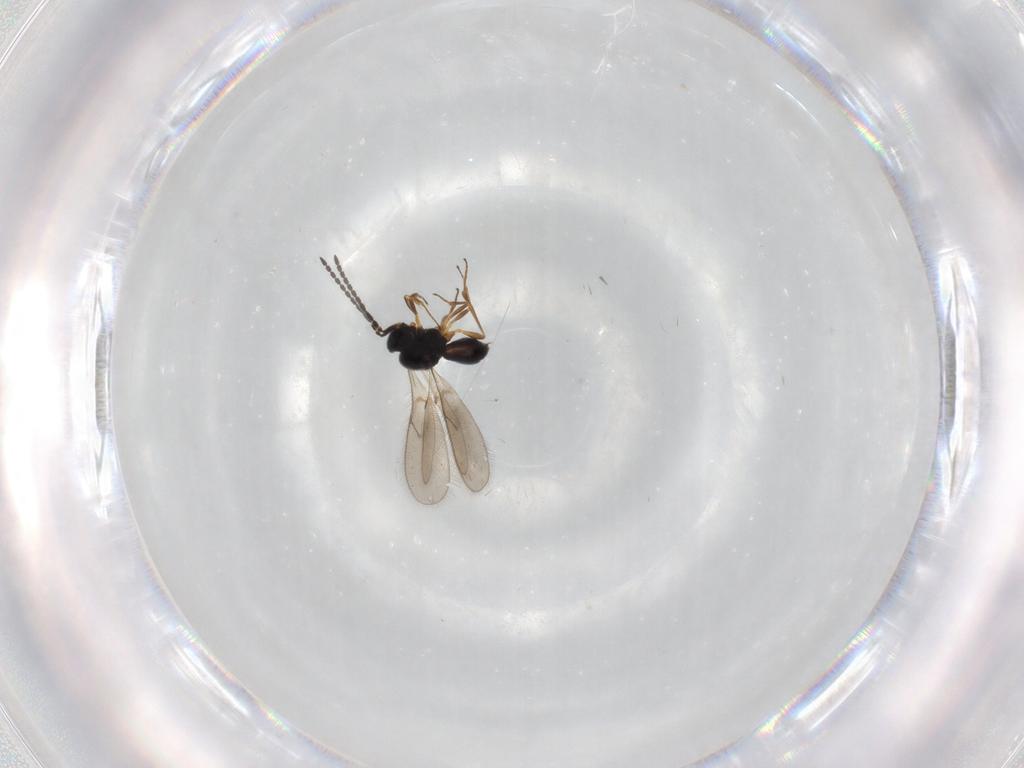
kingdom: Animalia
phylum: Arthropoda
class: Insecta
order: Hymenoptera
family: Scelionidae
